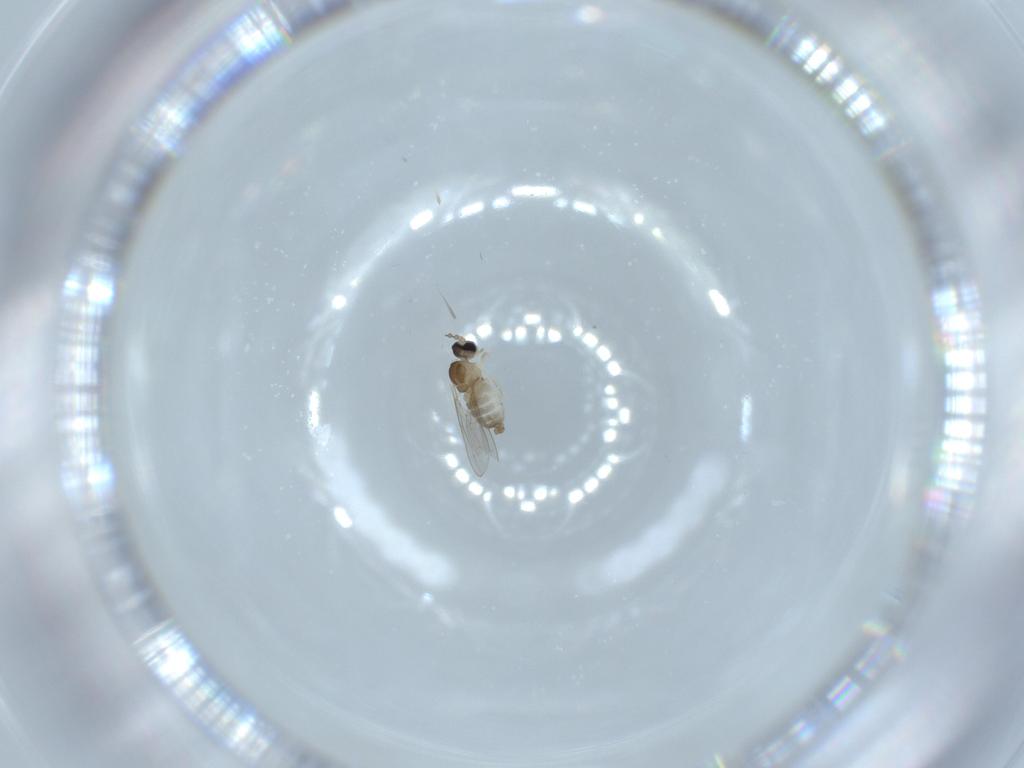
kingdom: Animalia
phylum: Arthropoda
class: Insecta
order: Diptera
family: Cecidomyiidae
